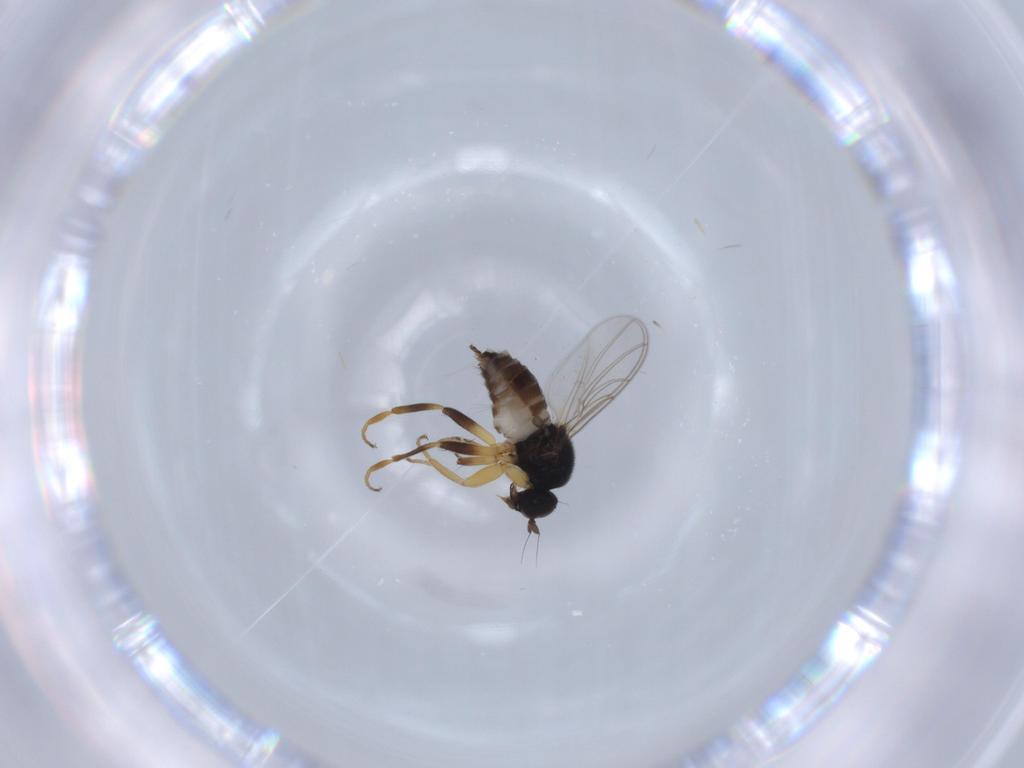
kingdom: Animalia
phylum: Arthropoda
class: Insecta
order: Diptera
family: Hybotidae
